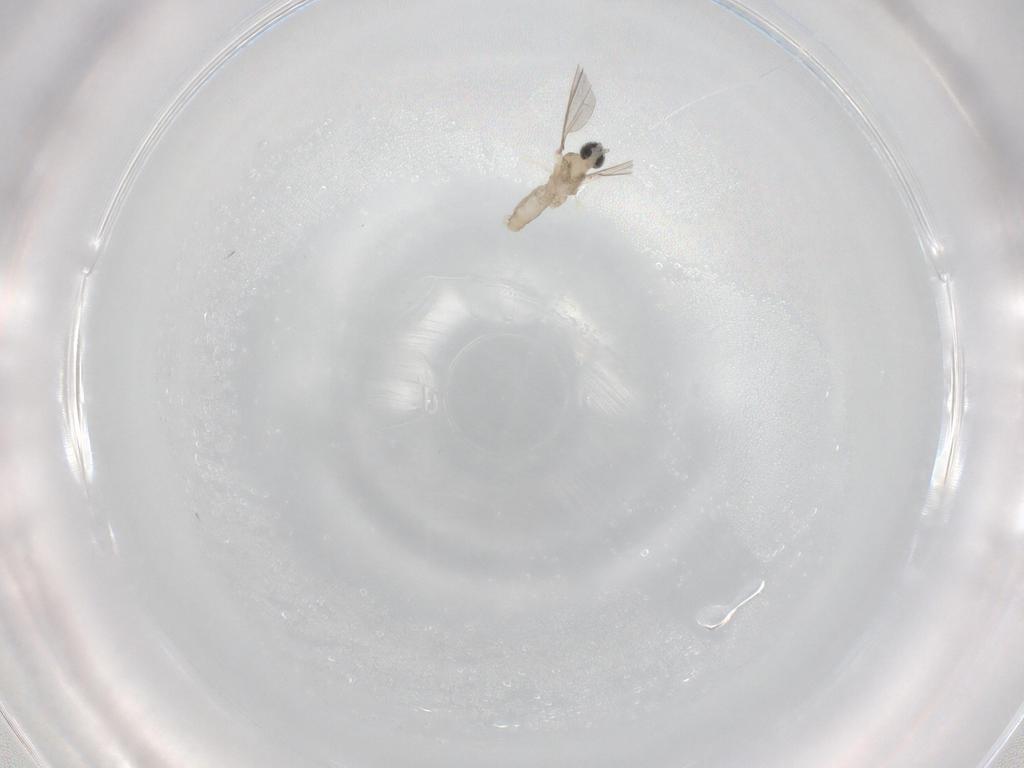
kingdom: Animalia
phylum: Arthropoda
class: Insecta
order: Diptera
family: Cecidomyiidae
